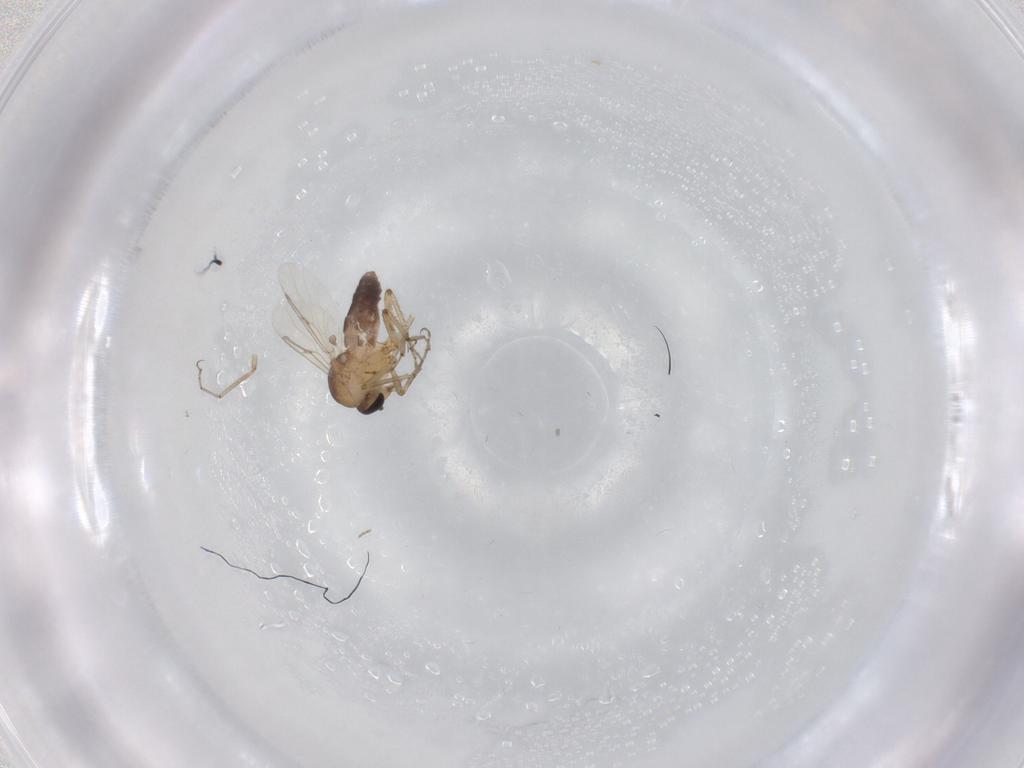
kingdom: Animalia
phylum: Arthropoda
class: Insecta
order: Diptera
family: Ceratopogonidae
